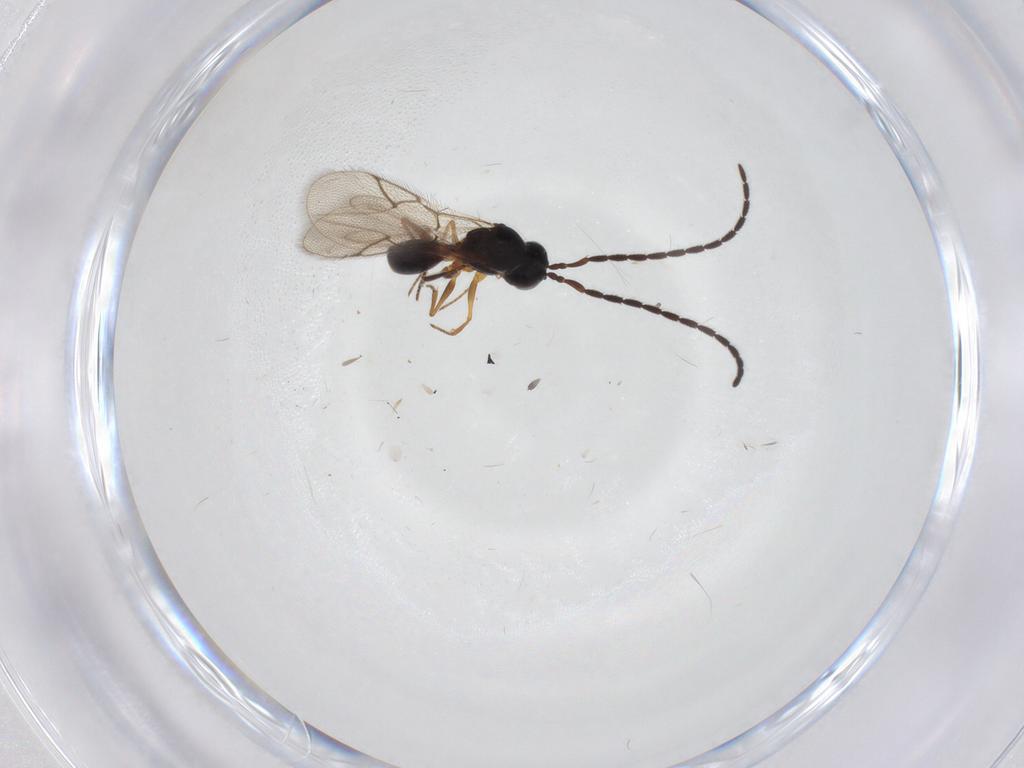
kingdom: Animalia
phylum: Arthropoda
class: Insecta
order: Hymenoptera
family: Figitidae
